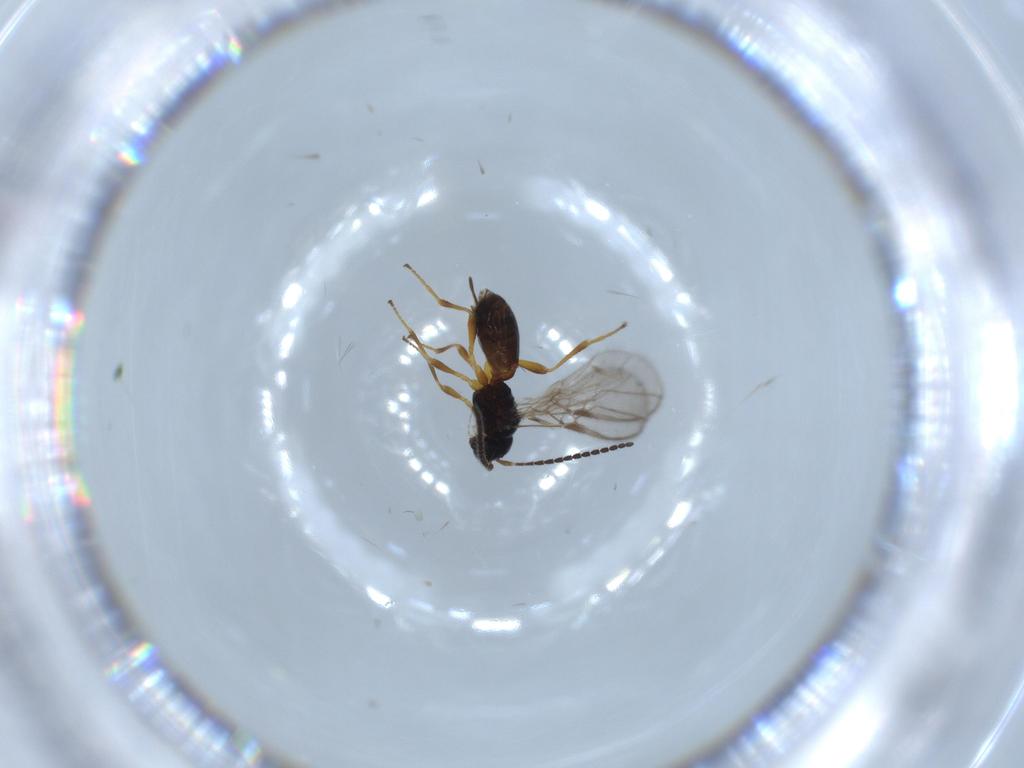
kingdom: Animalia
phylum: Arthropoda
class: Insecta
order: Hymenoptera
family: Braconidae
